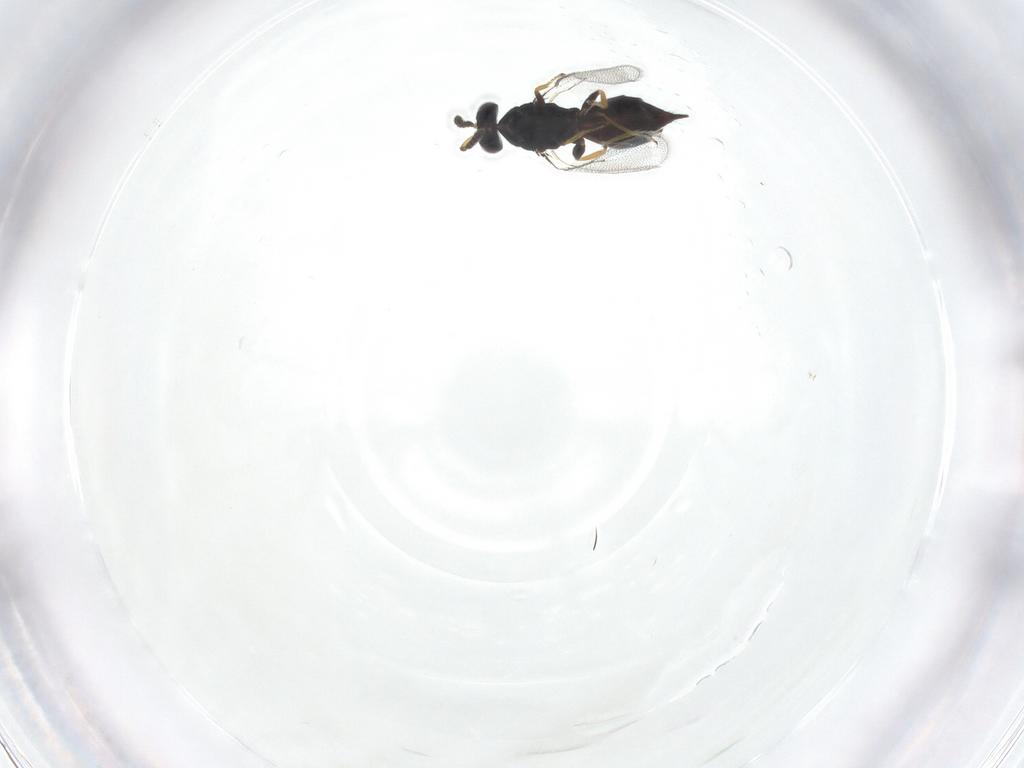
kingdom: Animalia
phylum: Arthropoda
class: Insecta
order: Hymenoptera
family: Eulophidae
